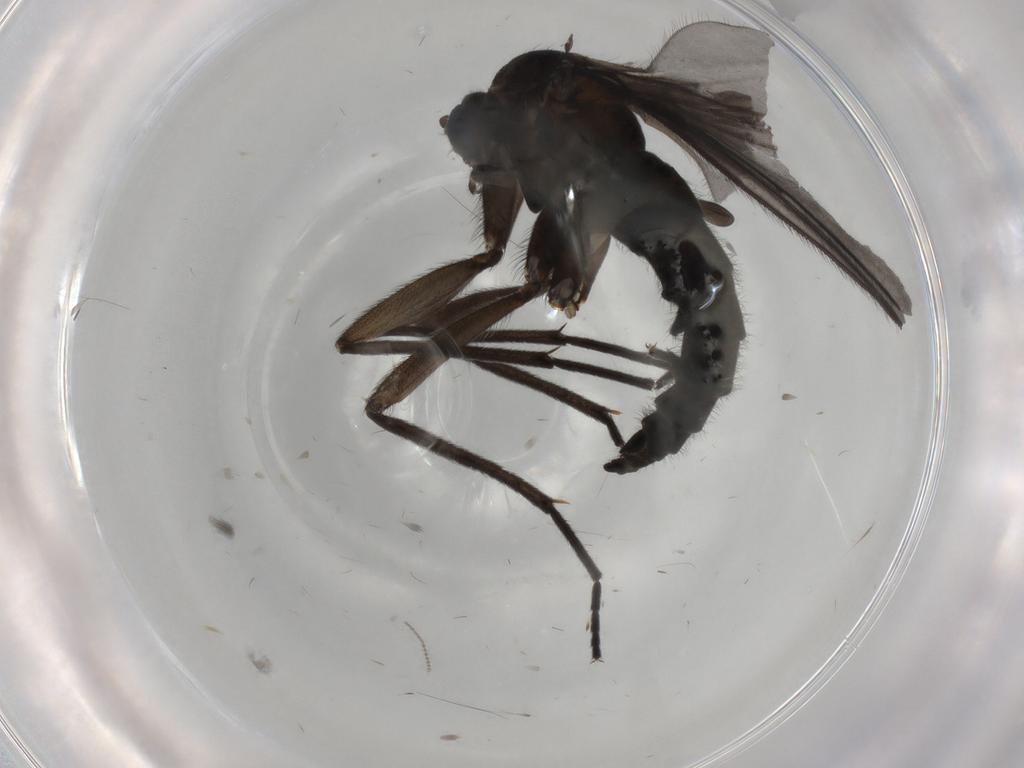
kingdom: Animalia
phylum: Arthropoda
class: Insecta
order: Diptera
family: Sciaridae
